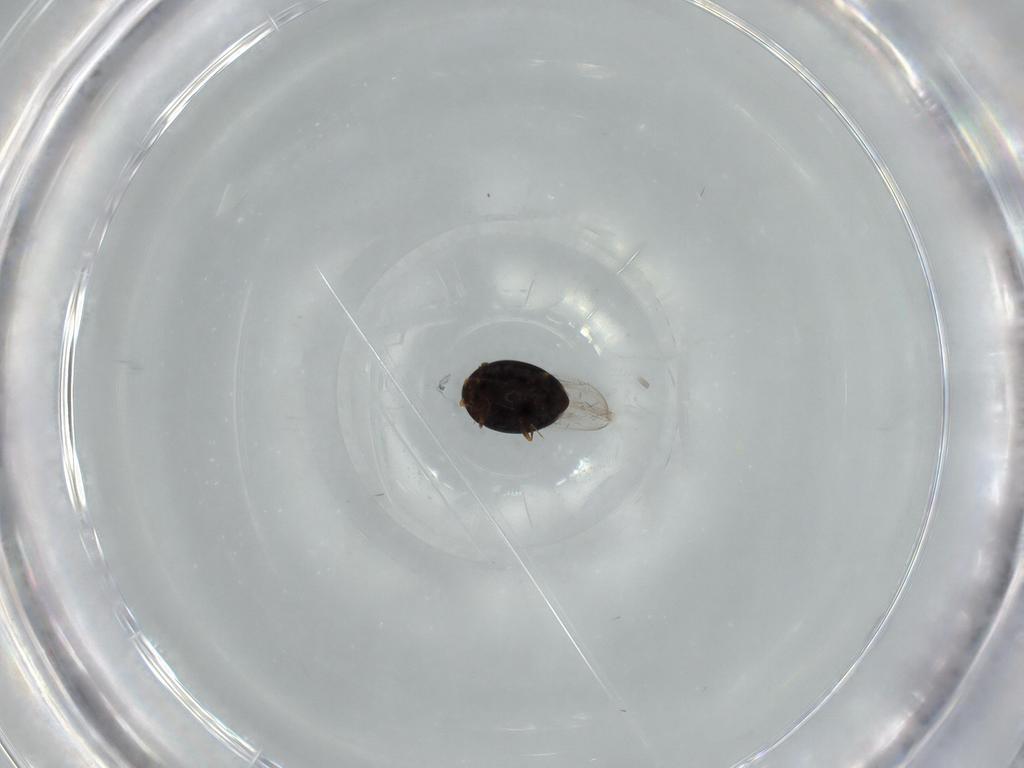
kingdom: Animalia
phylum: Arthropoda
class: Insecta
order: Coleoptera
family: Corylophidae
